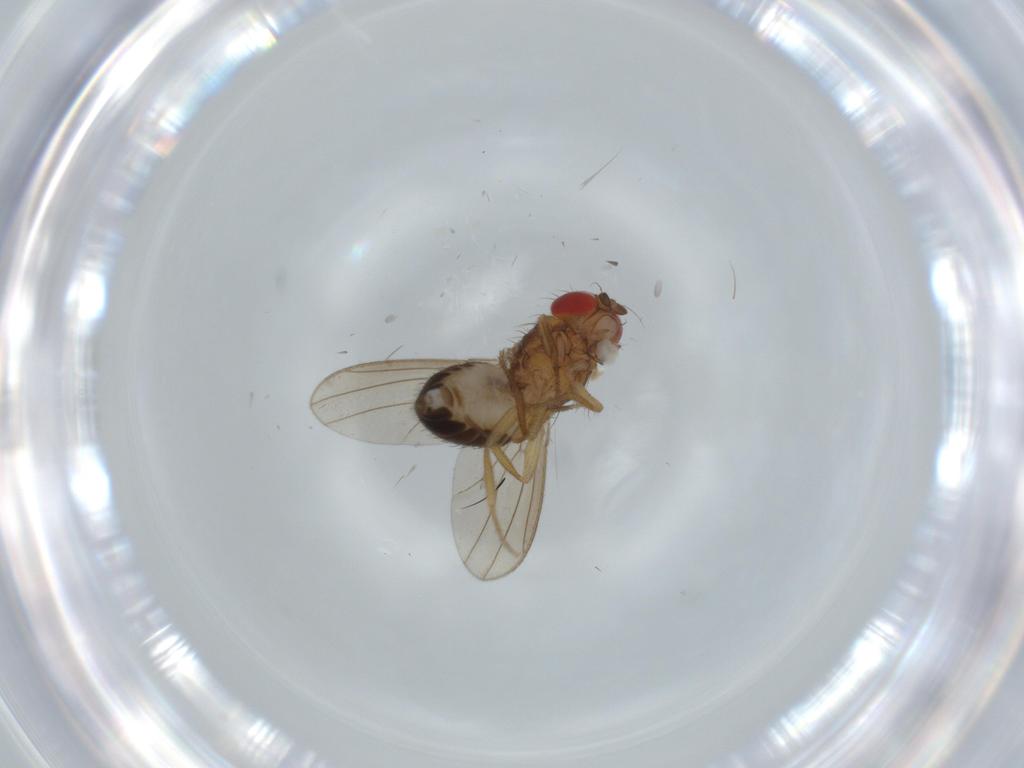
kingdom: Animalia
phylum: Arthropoda
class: Insecta
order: Diptera
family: Drosophilidae
